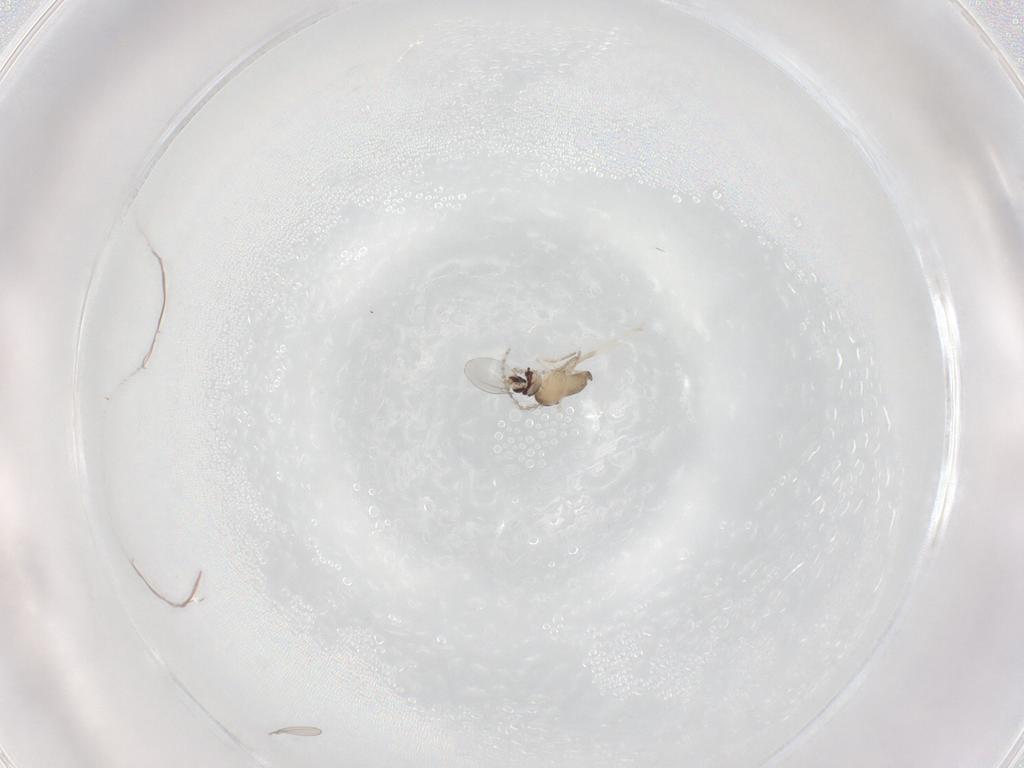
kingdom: Animalia
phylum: Arthropoda
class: Insecta
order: Diptera
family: Cecidomyiidae
